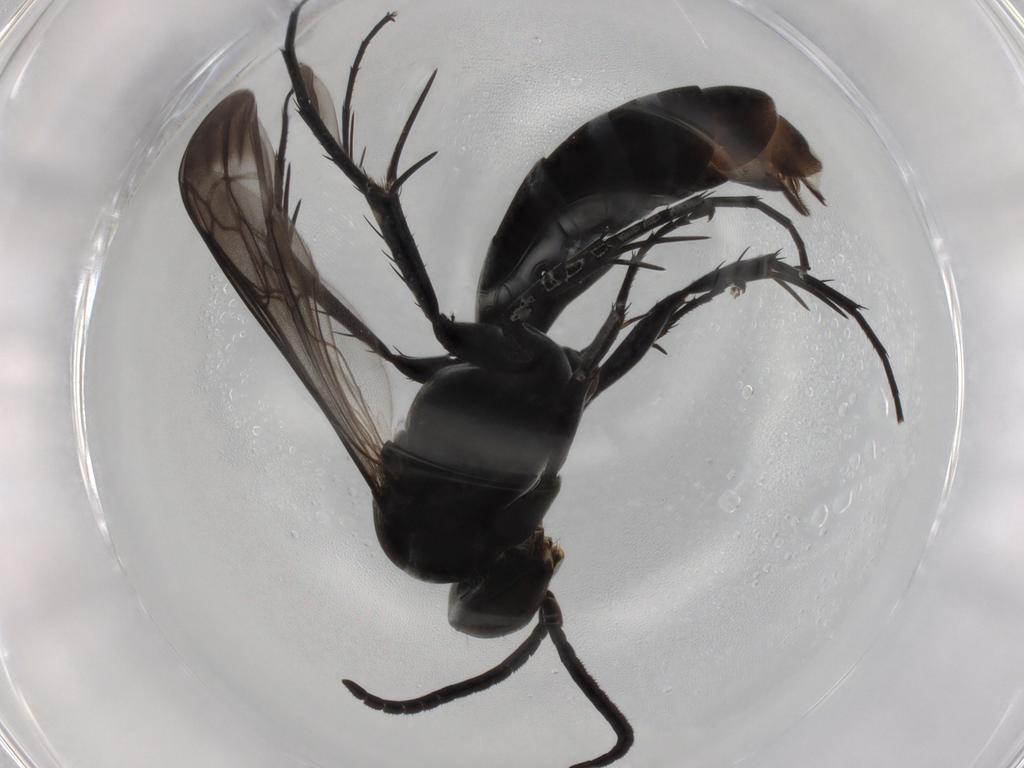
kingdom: Animalia
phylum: Arthropoda
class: Insecta
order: Hymenoptera
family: Pompilidae
